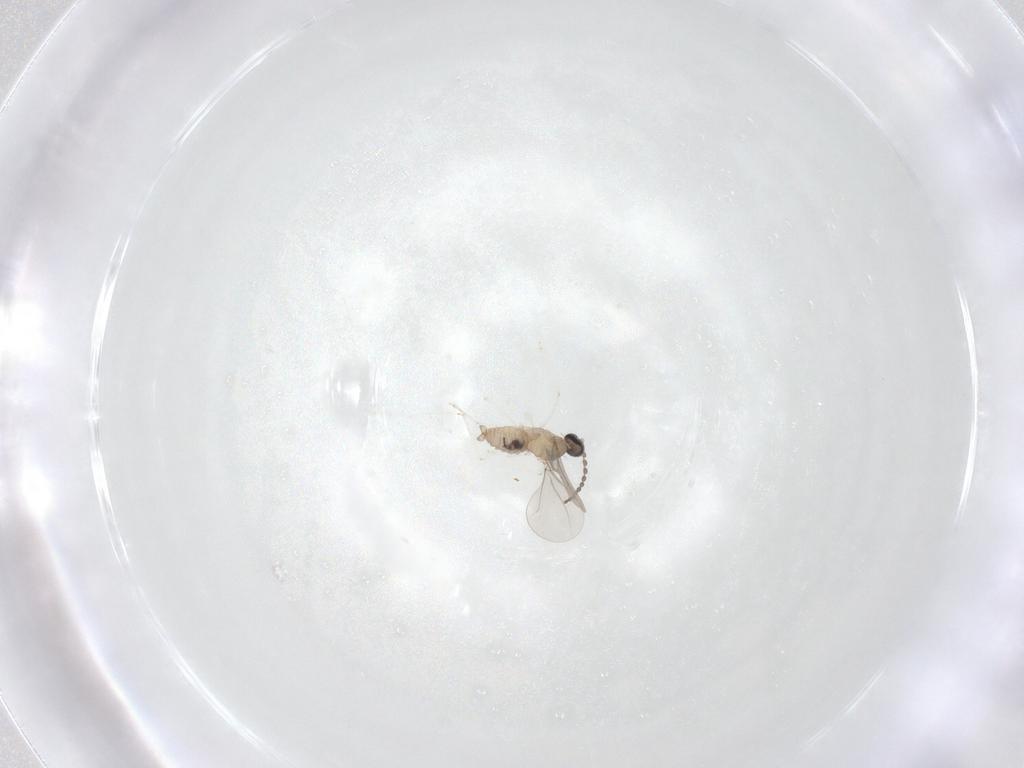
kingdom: Animalia
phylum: Arthropoda
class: Insecta
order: Diptera
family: Cecidomyiidae
